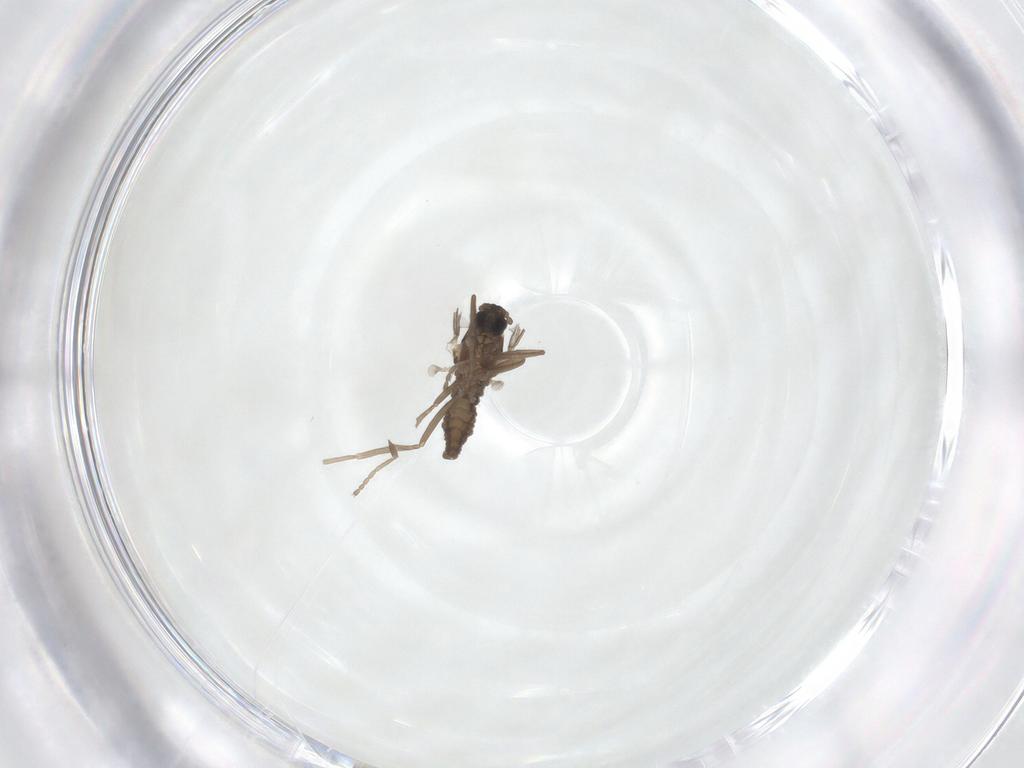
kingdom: Animalia
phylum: Arthropoda
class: Insecta
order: Diptera
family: Cecidomyiidae
